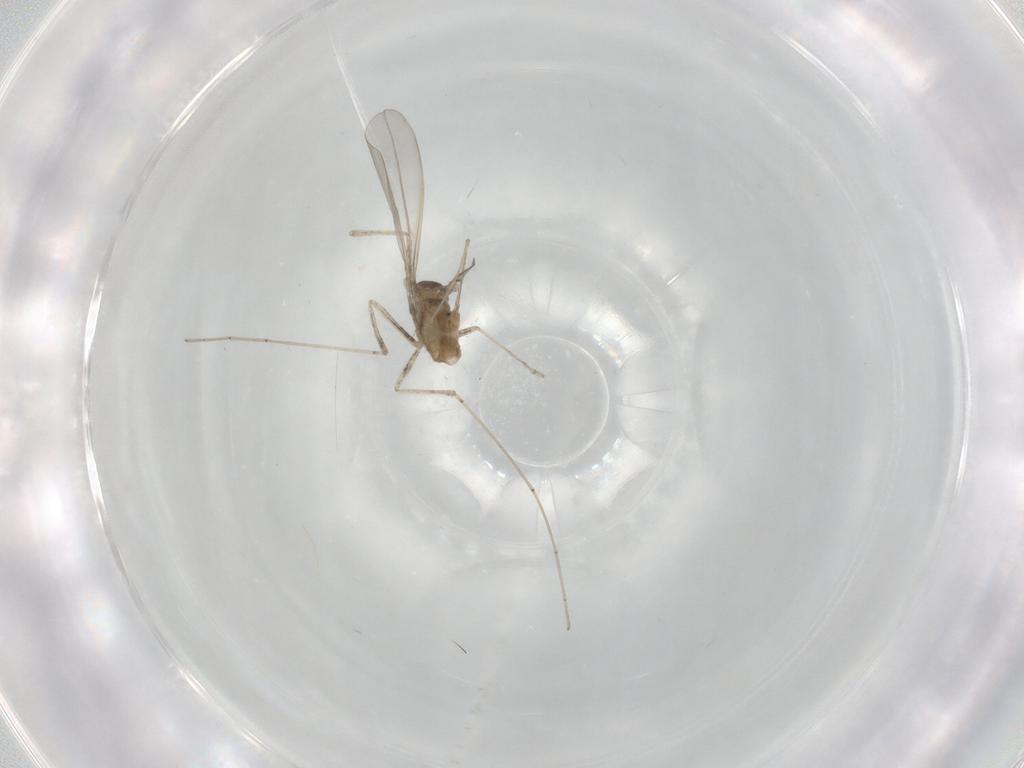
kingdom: Animalia
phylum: Arthropoda
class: Insecta
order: Diptera
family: Cecidomyiidae
